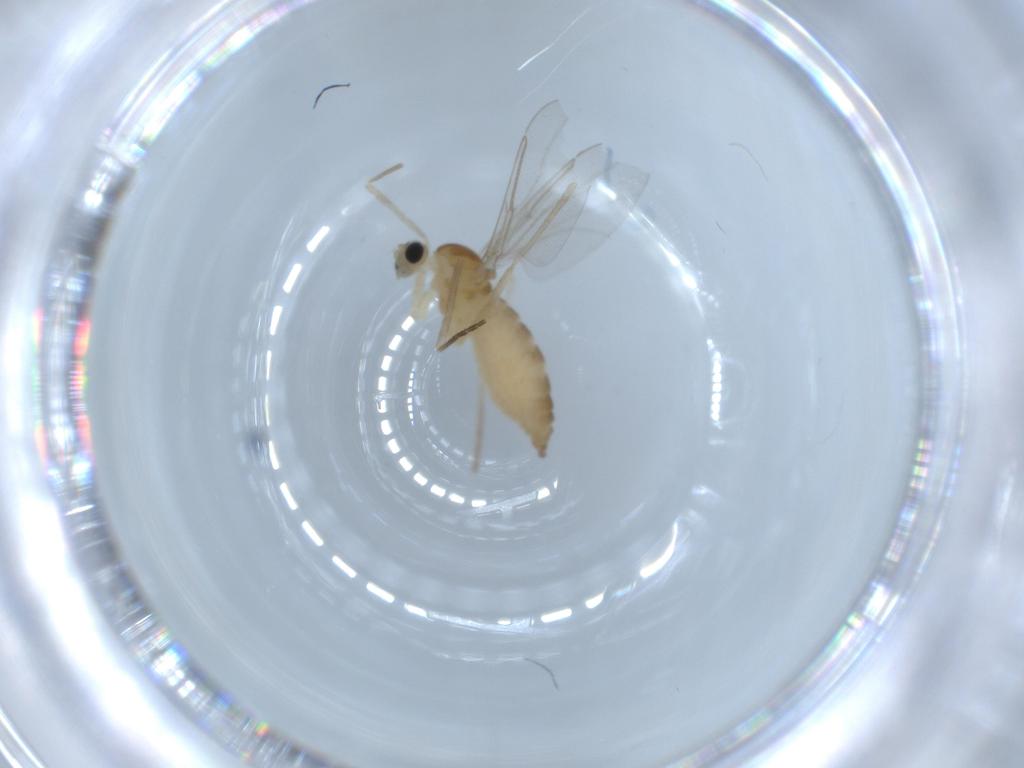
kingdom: Animalia
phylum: Arthropoda
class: Insecta
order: Diptera
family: Cecidomyiidae
